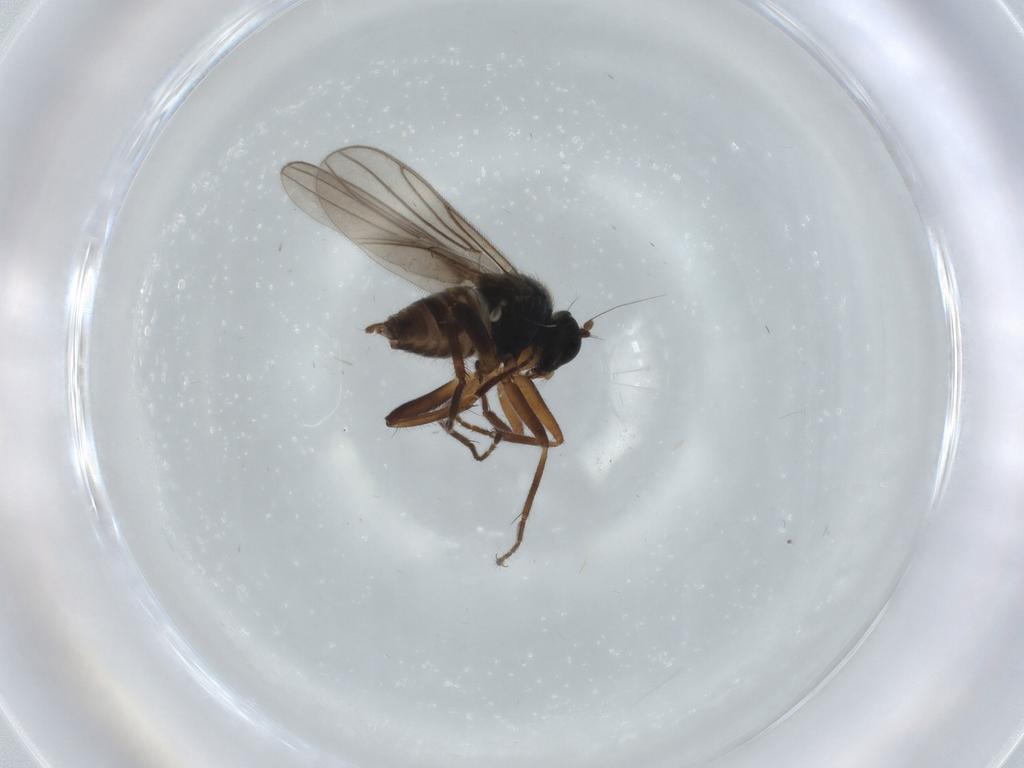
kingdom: Animalia
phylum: Arthropoda
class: Insecta
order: Diptera
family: Hybotidae
